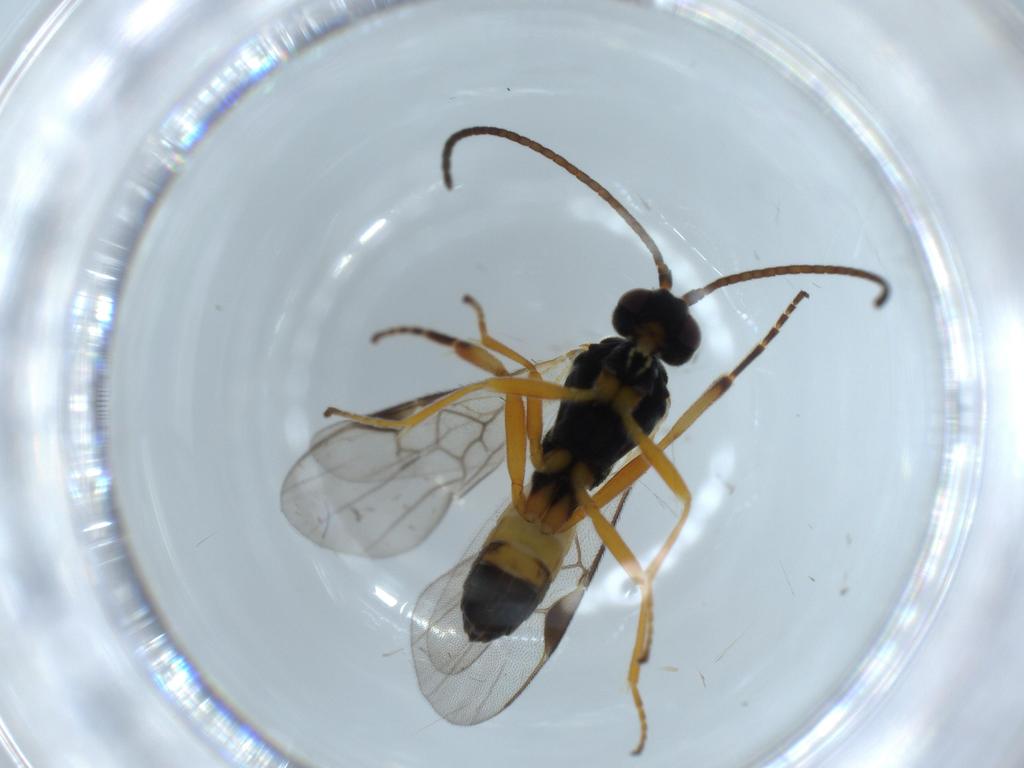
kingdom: Animalia
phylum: Arthropoda
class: Insecta
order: Hymenoptera
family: Braconidae
